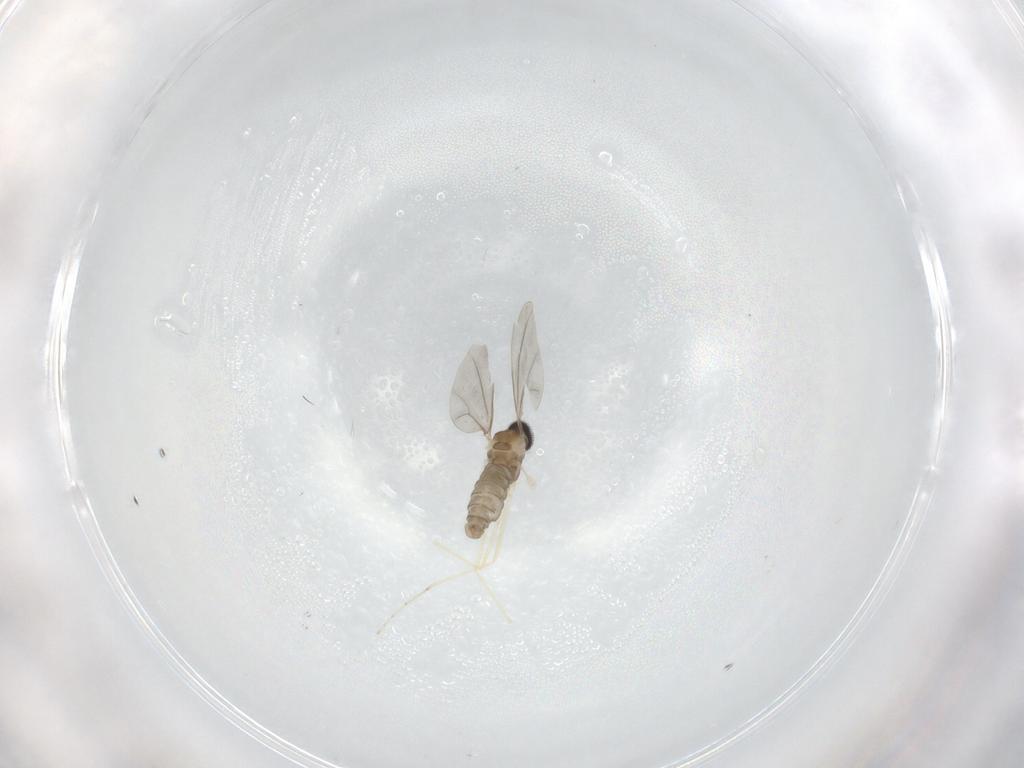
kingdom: Animalia
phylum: Arthropoda
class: Insecta
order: Diptera
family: Cecidomyiidae
